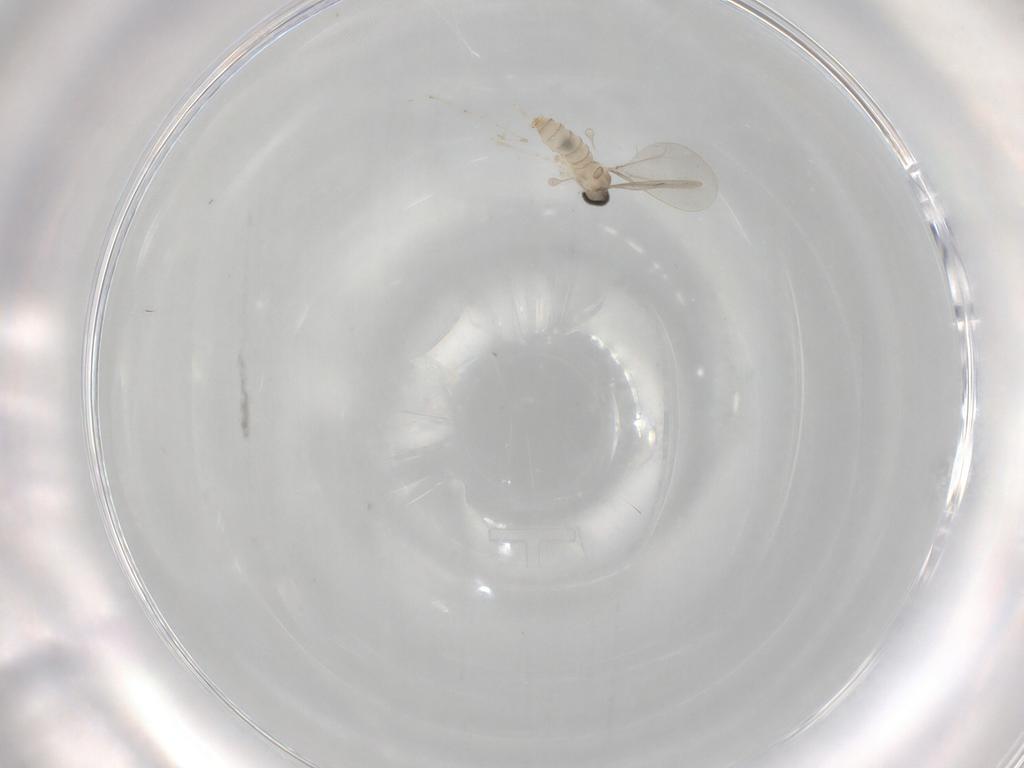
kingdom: Animalia
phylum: Arthropoda
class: Insecta
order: Diptera
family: Cecidomyiidae
